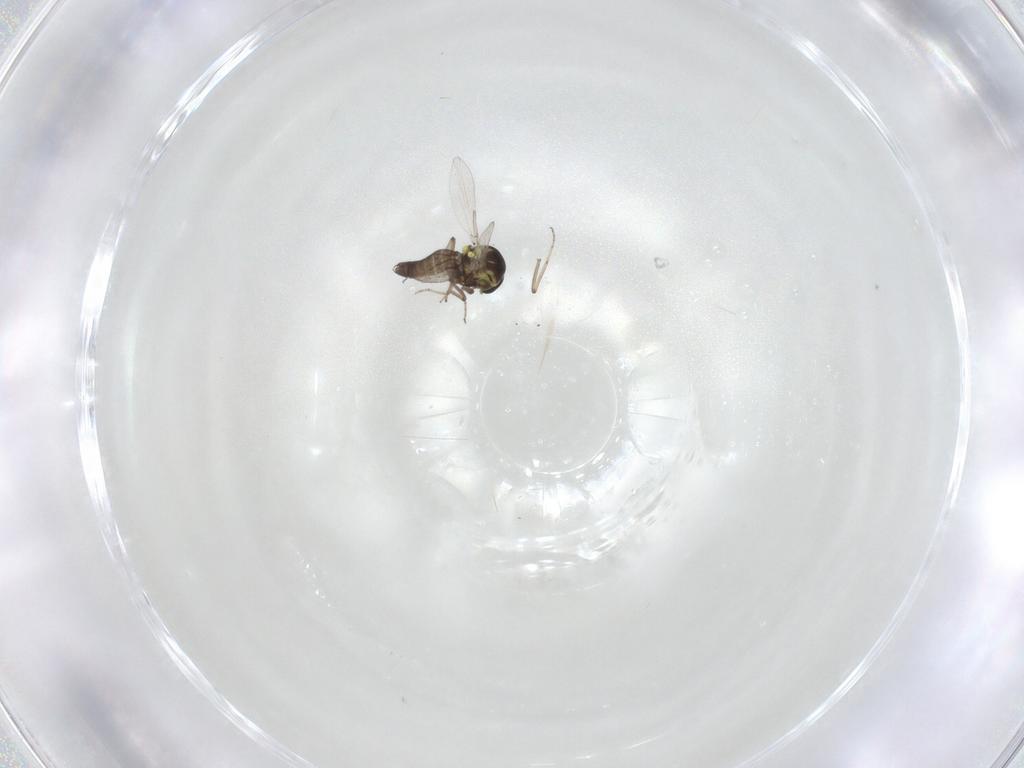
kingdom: Animalia
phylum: Arthropoda
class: Insecta
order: Diptera
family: Ceratopogonidae
